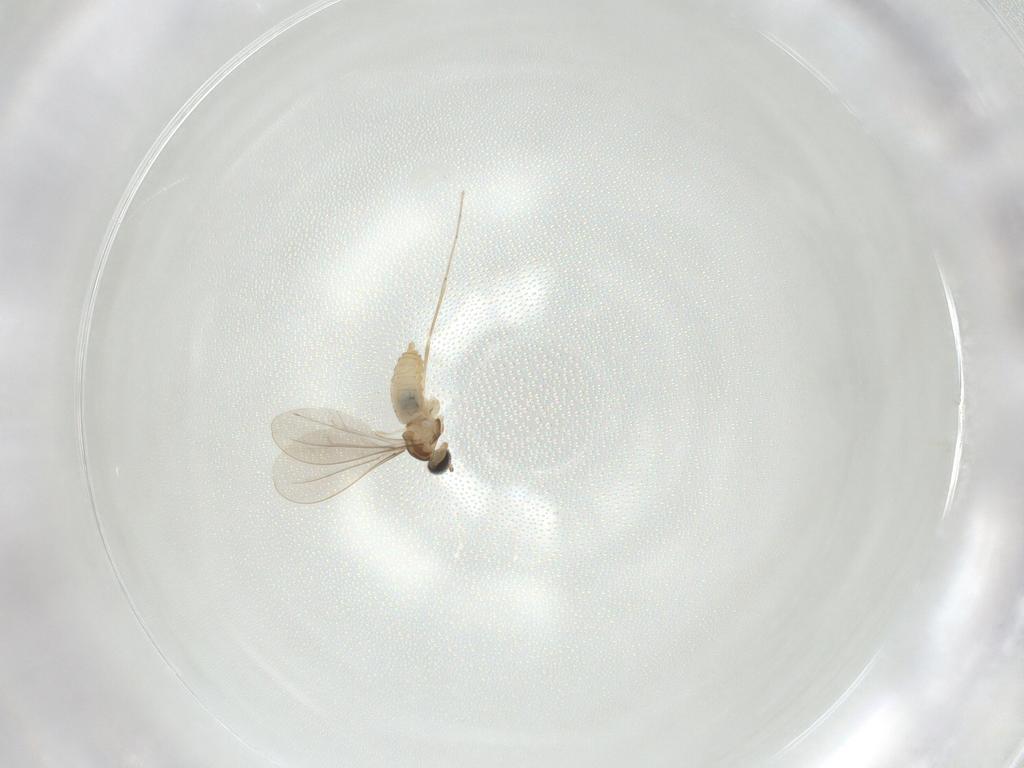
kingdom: Animalia
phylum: Arthropoda
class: Insecta
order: Diptera
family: Cecidomyiidae
